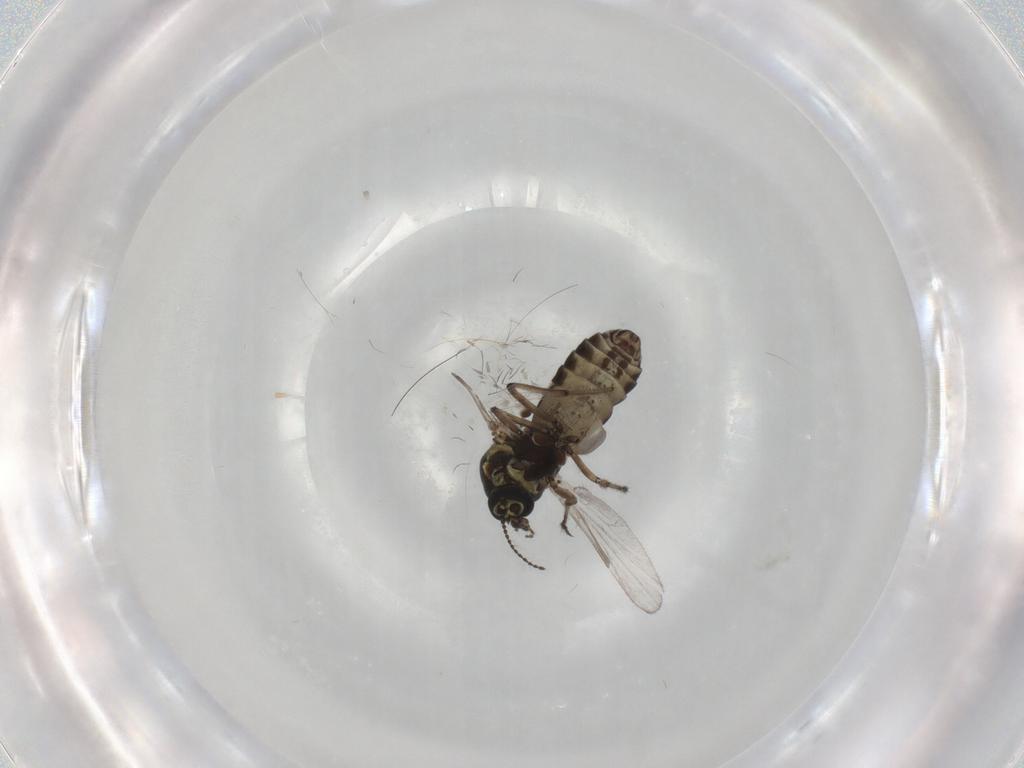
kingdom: Animalia
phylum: Arthropoda
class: Insecta
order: Diptera
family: Ceratopogonidae
